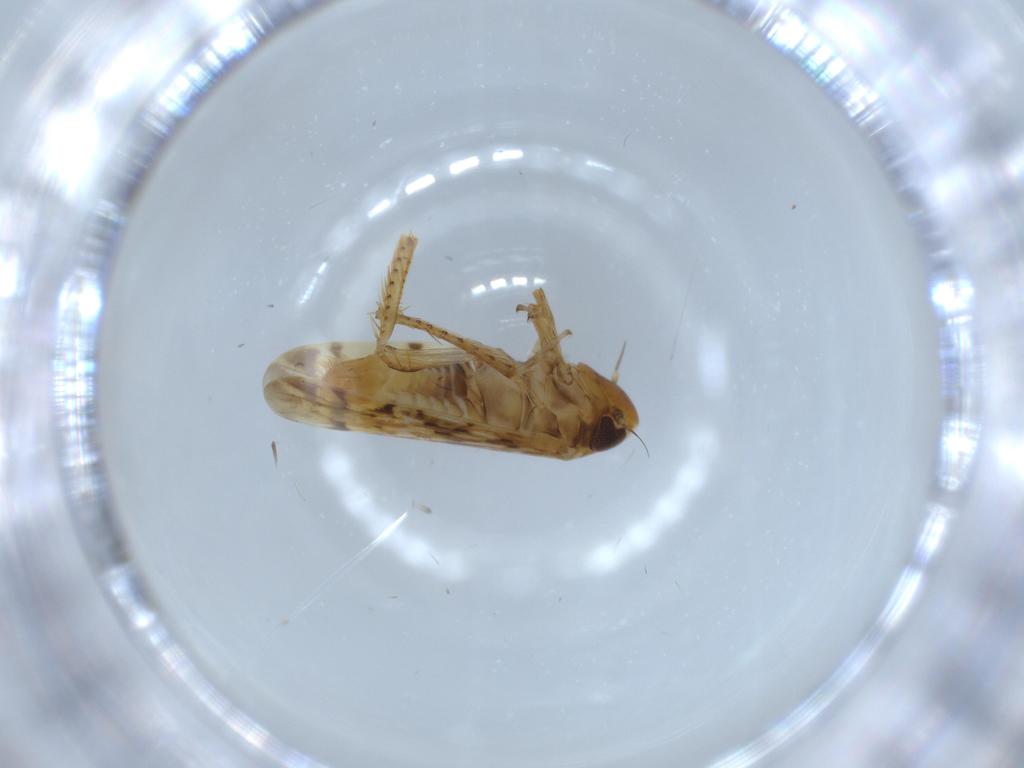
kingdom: Animalia
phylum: Arthropoda
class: Insecta
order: Hemiptera
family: Cicadellidae
